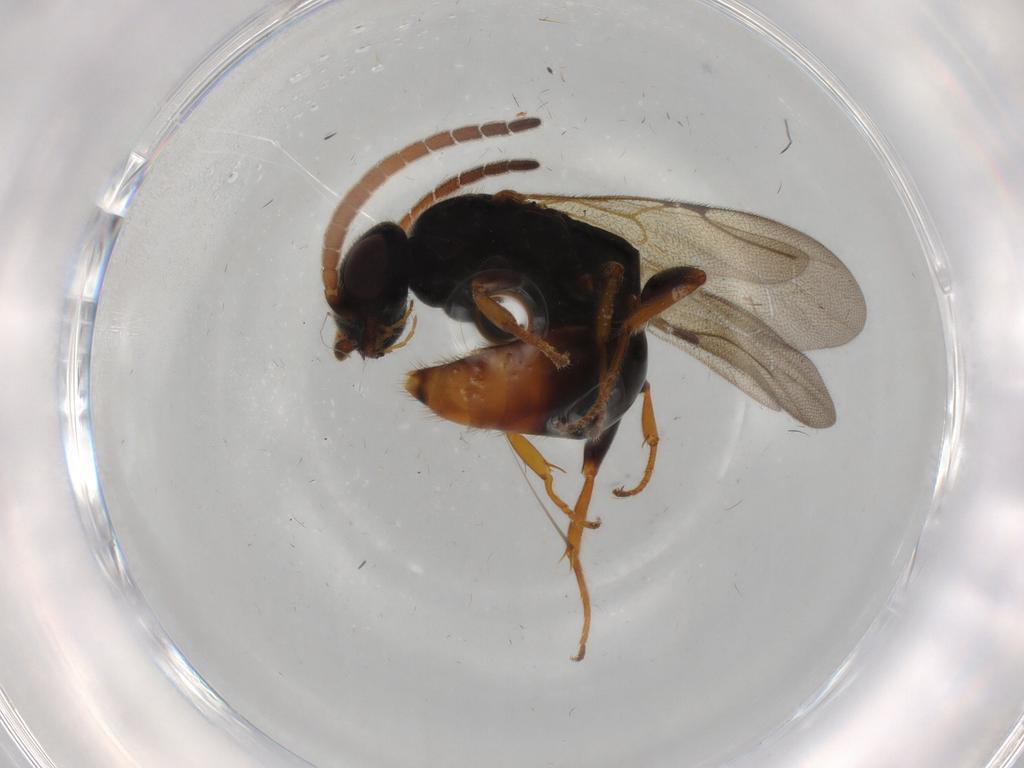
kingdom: Animalia
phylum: Arthropoda
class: Insecta
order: Hymenoptera
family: Bethylidae
